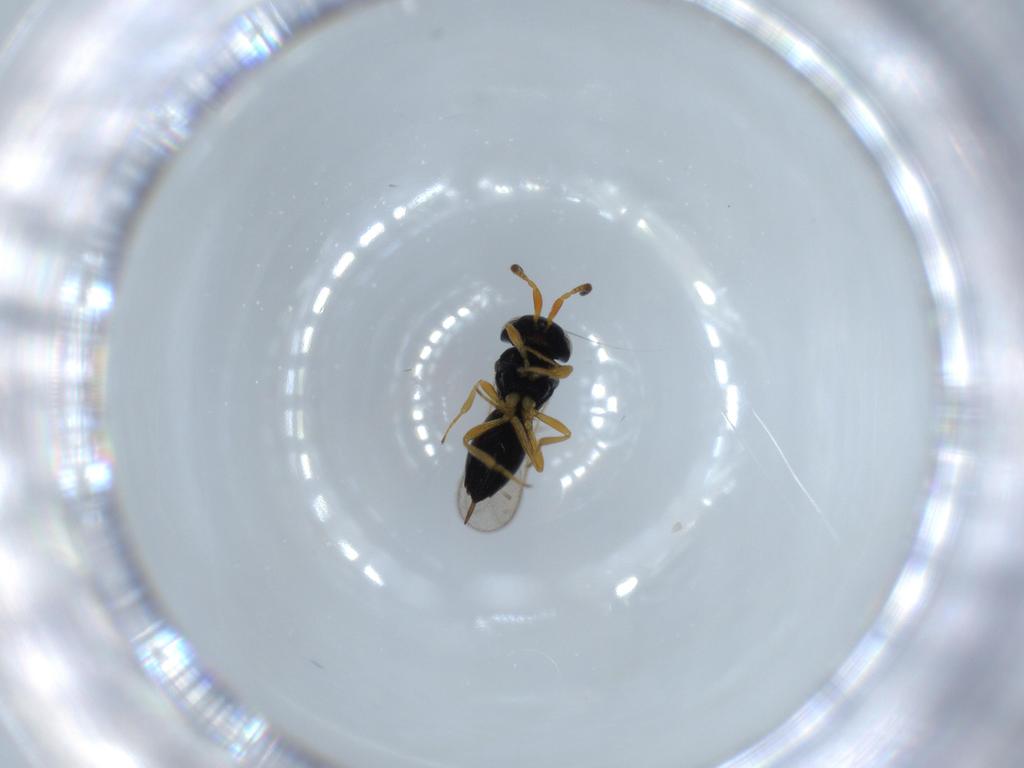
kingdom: Animalia
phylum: Arthropoda
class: Insecta
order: Hymenoptera
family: Scelionidae
